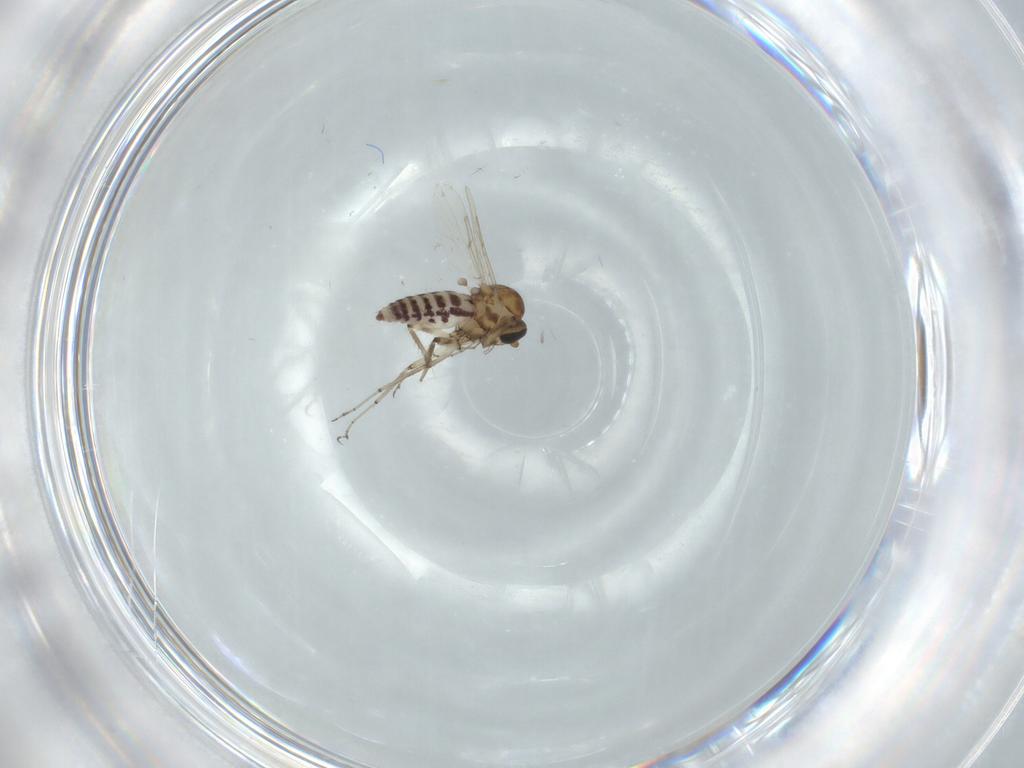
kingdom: Animalia
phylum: Arthropoda
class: Insecta
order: Diptera
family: Ceratopogonidae
